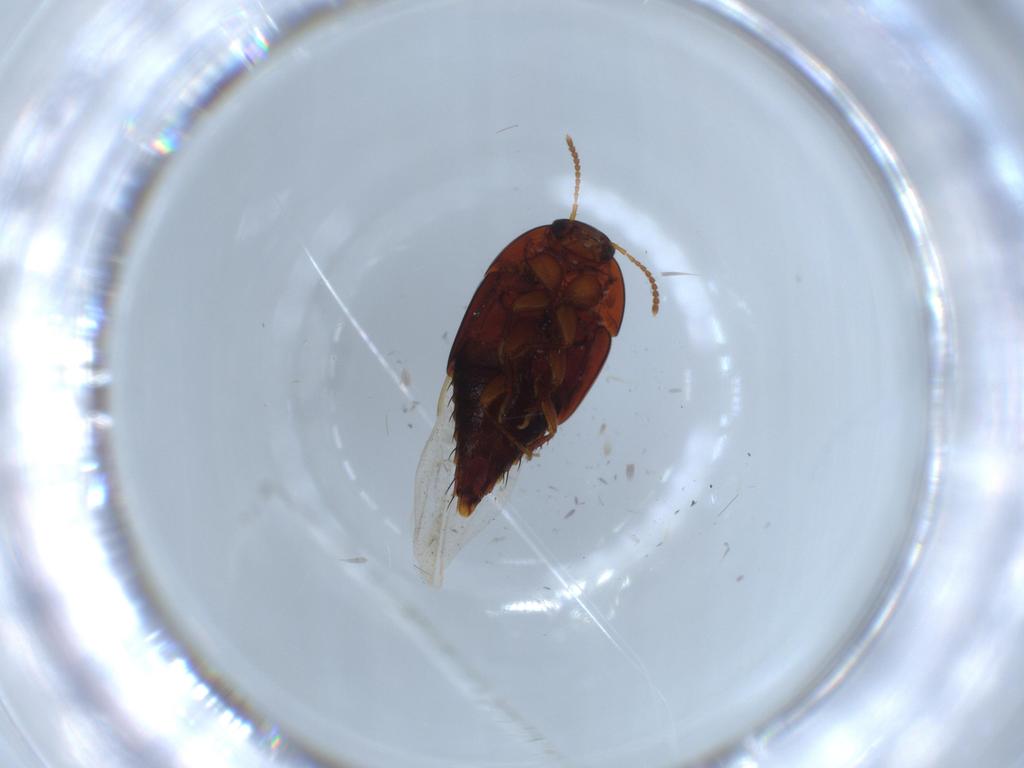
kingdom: Animalia
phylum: Arthropoda
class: Insecta
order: Coleoptera
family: Staphylinidae
